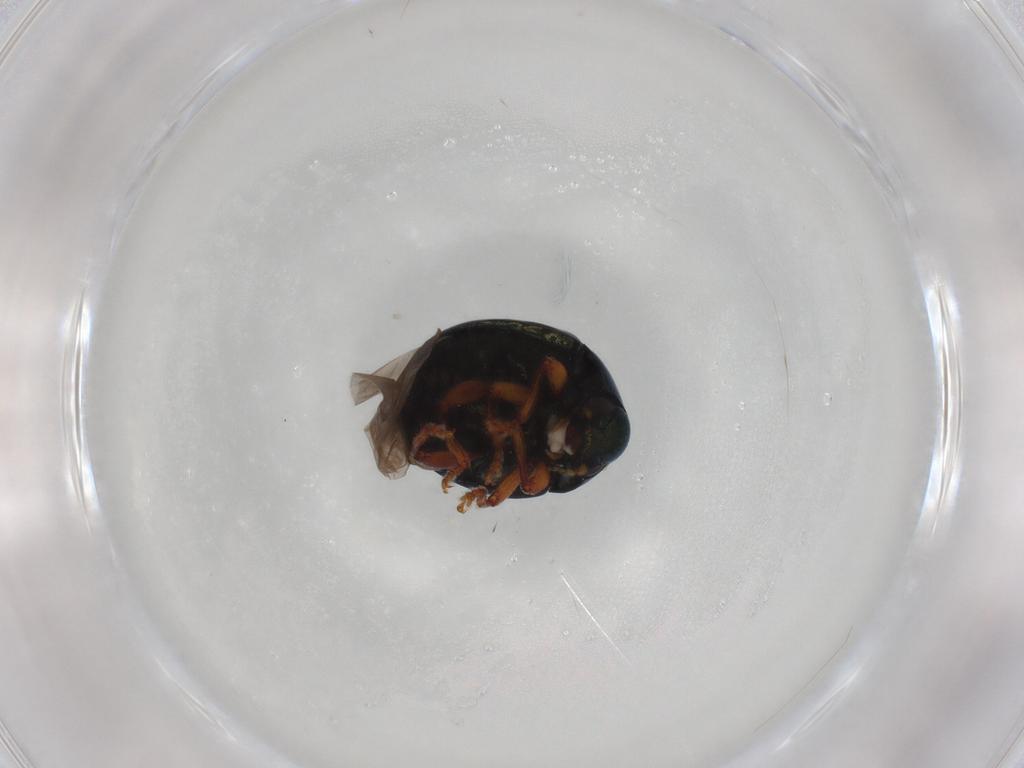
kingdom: Animalia
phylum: Arthropoda
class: Insecta
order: Coleoptera
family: Chrysomelidae
